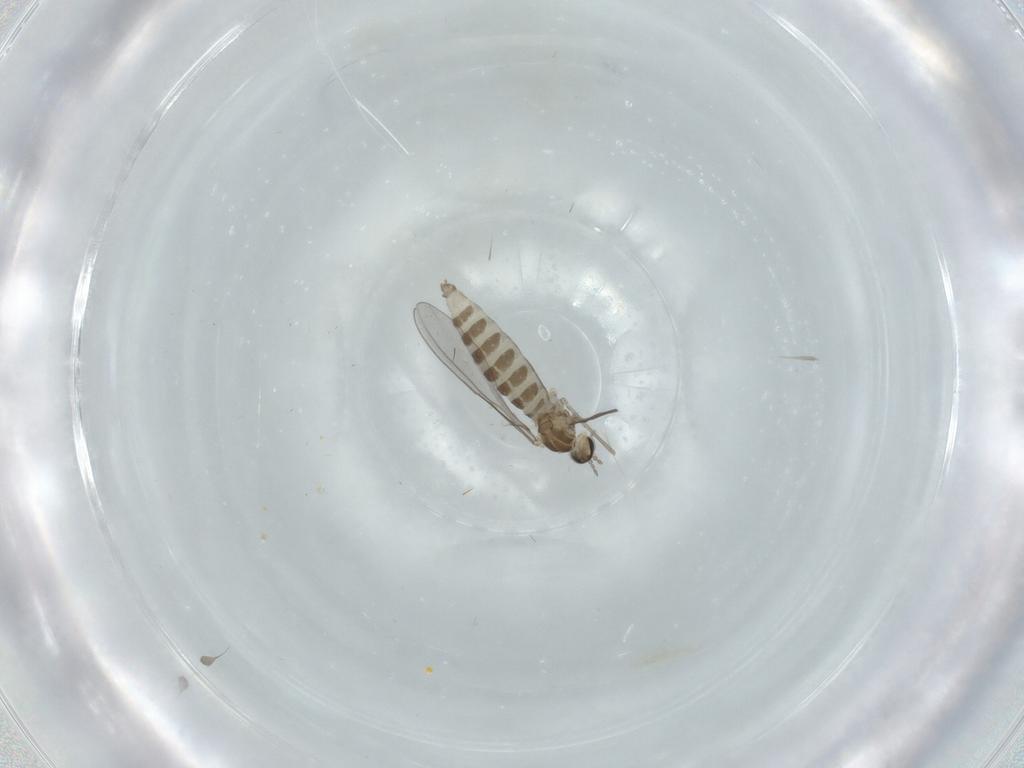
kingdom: Animalia
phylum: Arthropoda
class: Insecta
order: Diptera
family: Cecidomyiidae
